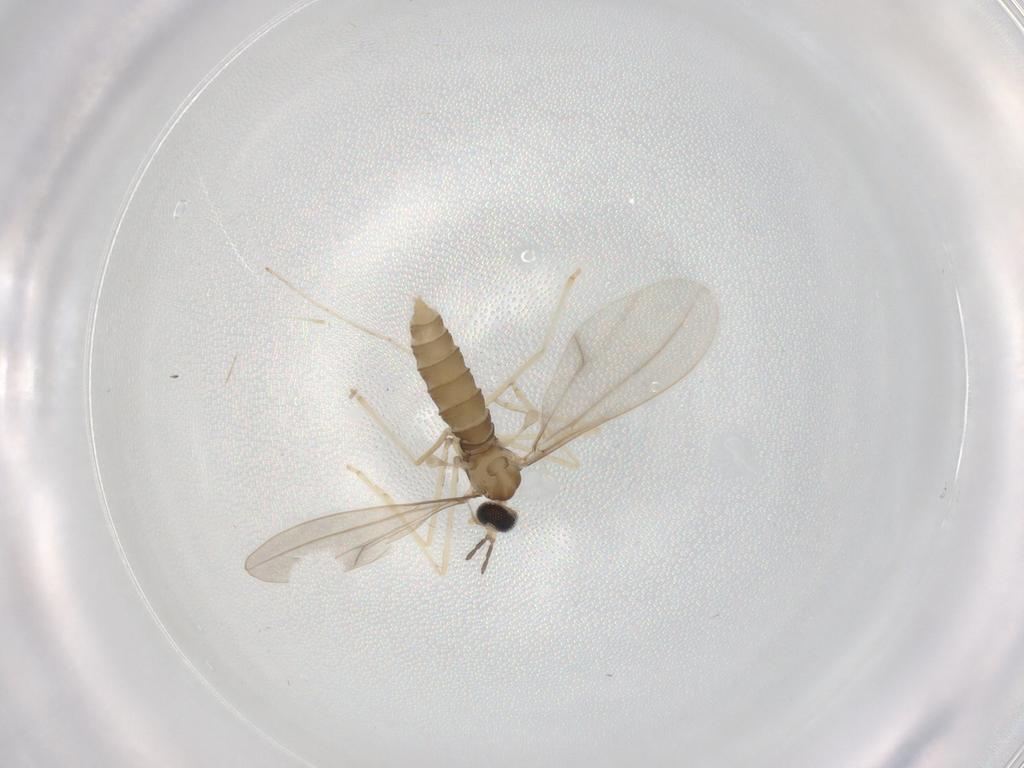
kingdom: Animalia
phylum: Arthropoda
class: Insecta
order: Diptera
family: Cecidomyiidae
